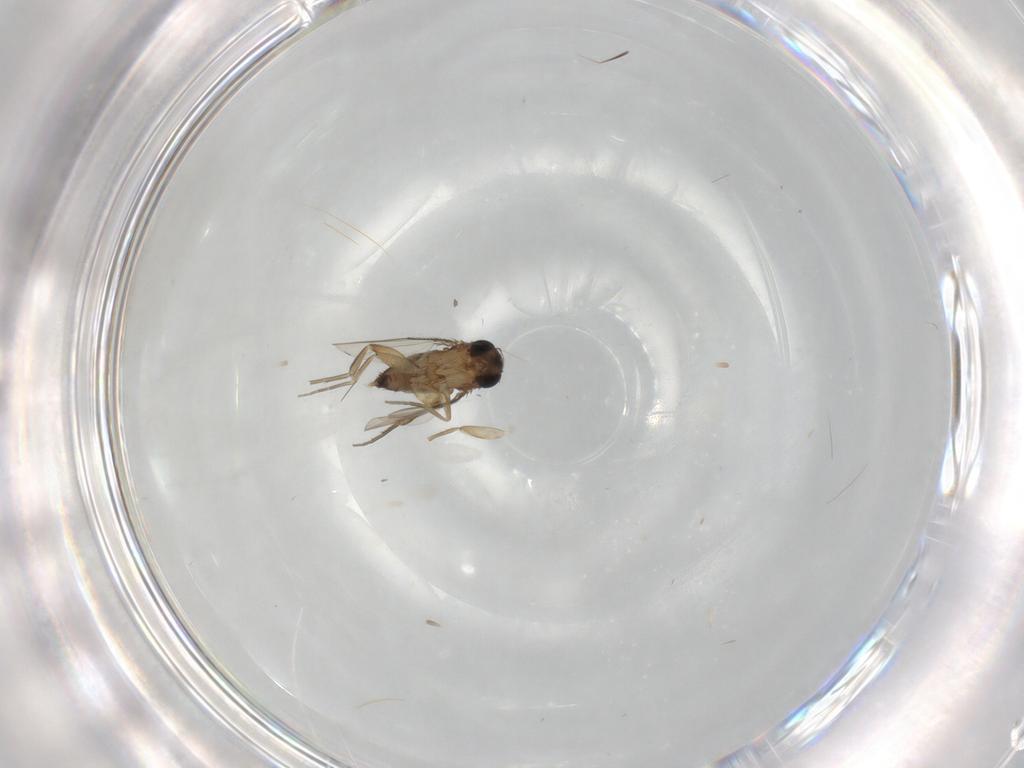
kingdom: Animalia
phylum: Arthropoda
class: Insecta
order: Diptera
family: Phoridae
